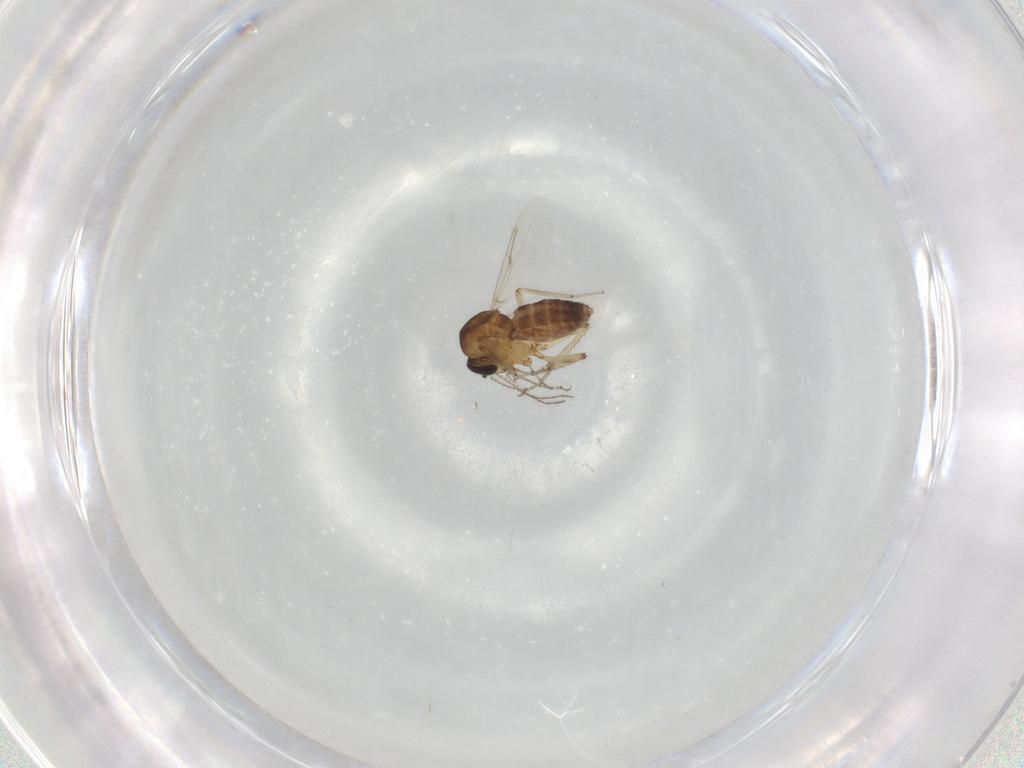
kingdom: Animalia
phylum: Arthropoda
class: Insecta
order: Diptera
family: Ceratopogonidae
